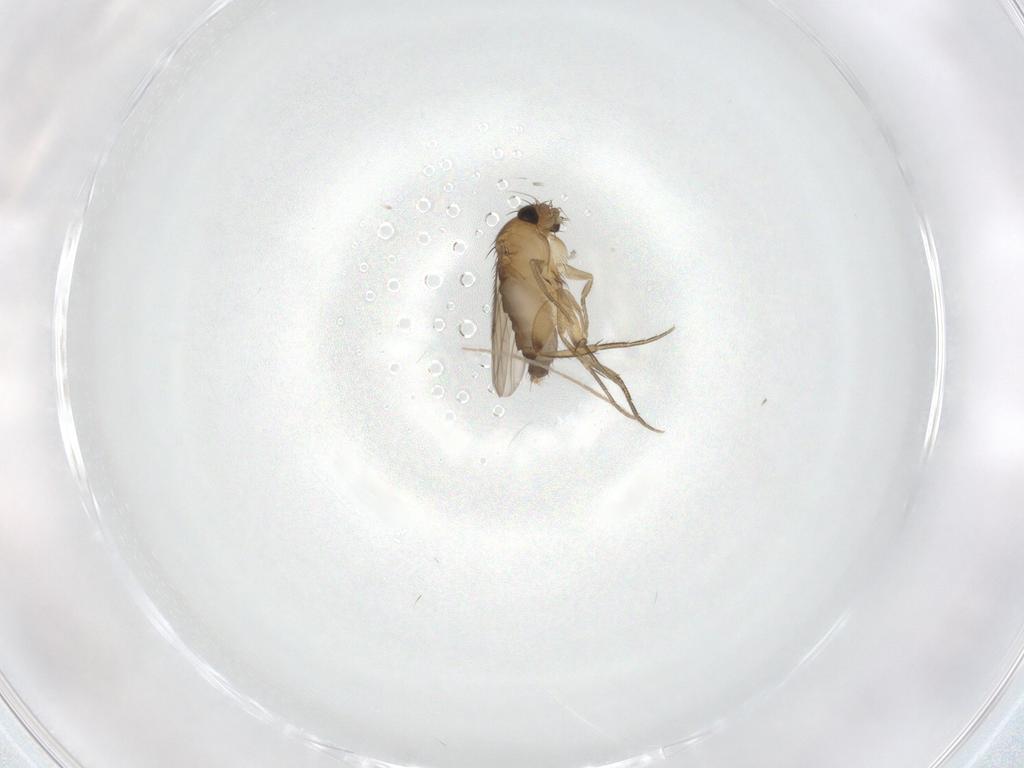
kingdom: Animalia
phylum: Arthropoda
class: Insecta
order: Diptera
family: Phoridae
